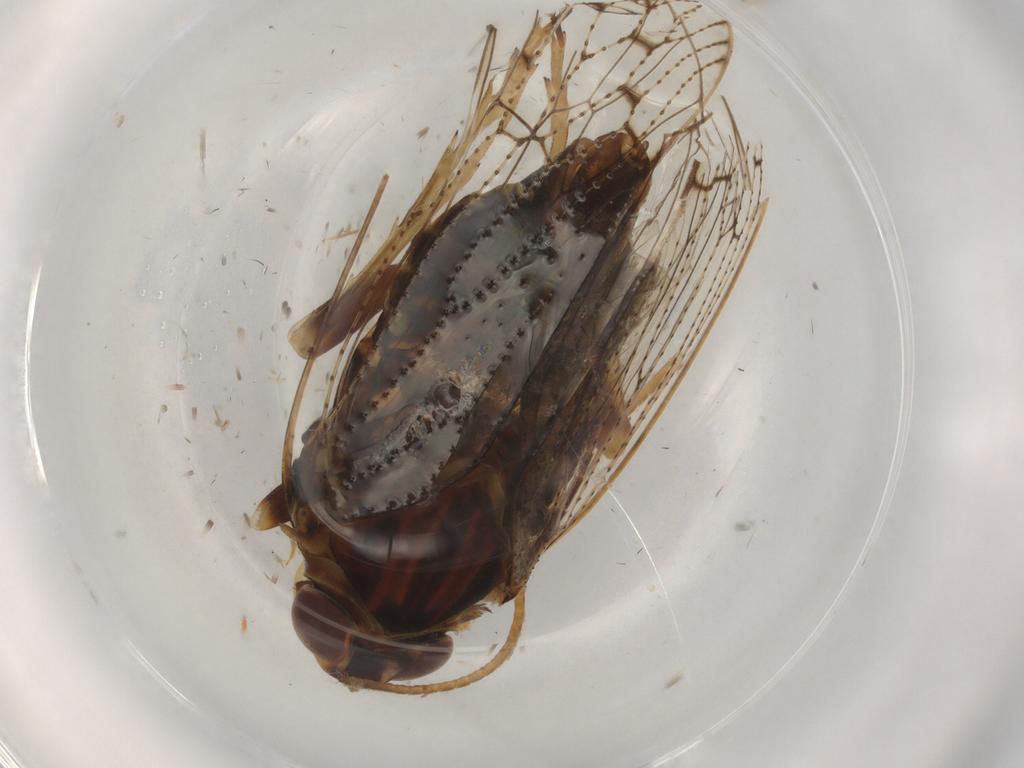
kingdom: Animalia
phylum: Arthropoda
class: Insecta
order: Hemiptera
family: Cixiidae
